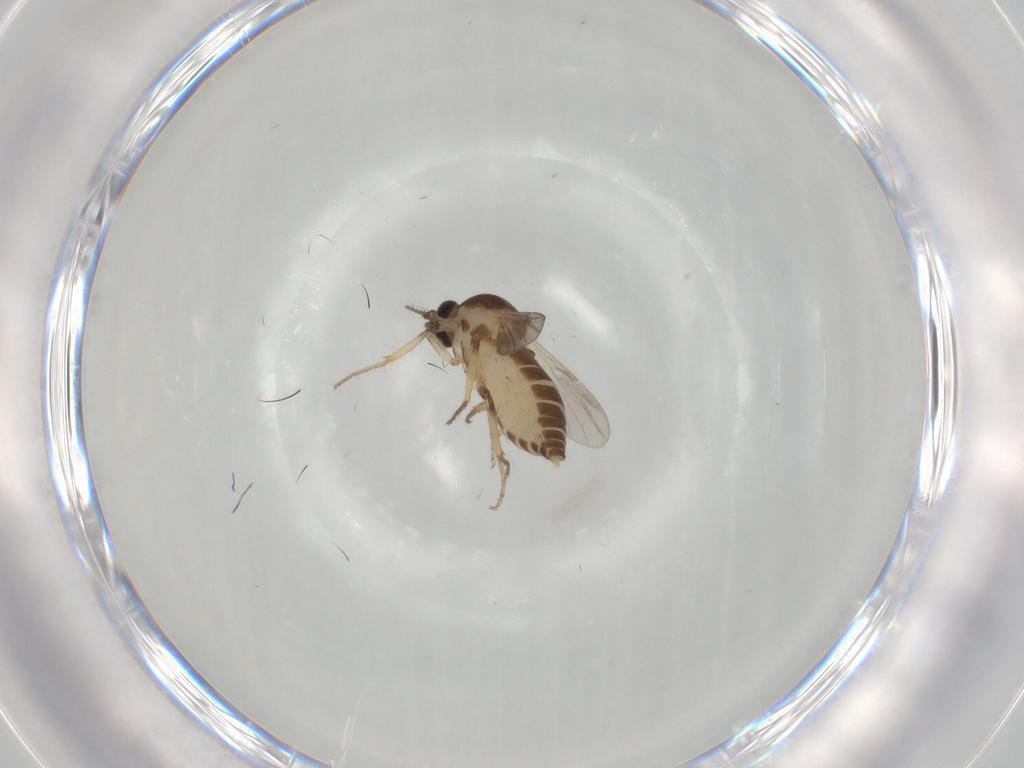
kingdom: Animalia
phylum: Arthropoda
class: Insecta
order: Diptera
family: Ceratopogonidae
